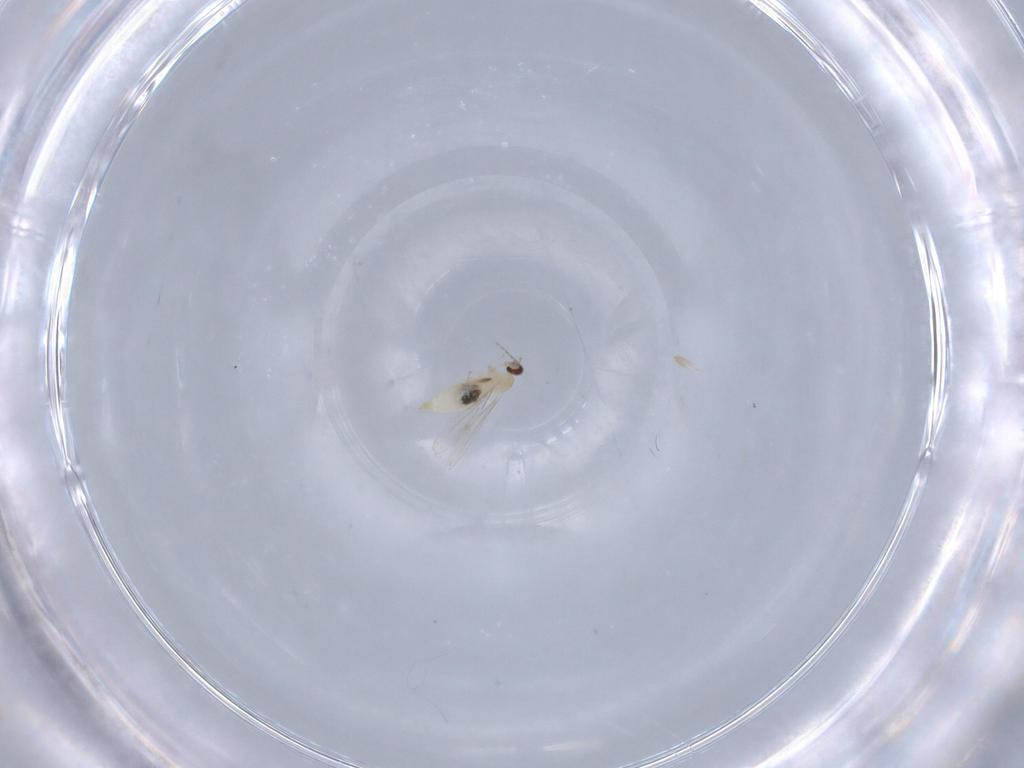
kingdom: Animalia
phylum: Arthropoda
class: Insecta
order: Diptera
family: Cecidomyiidae
